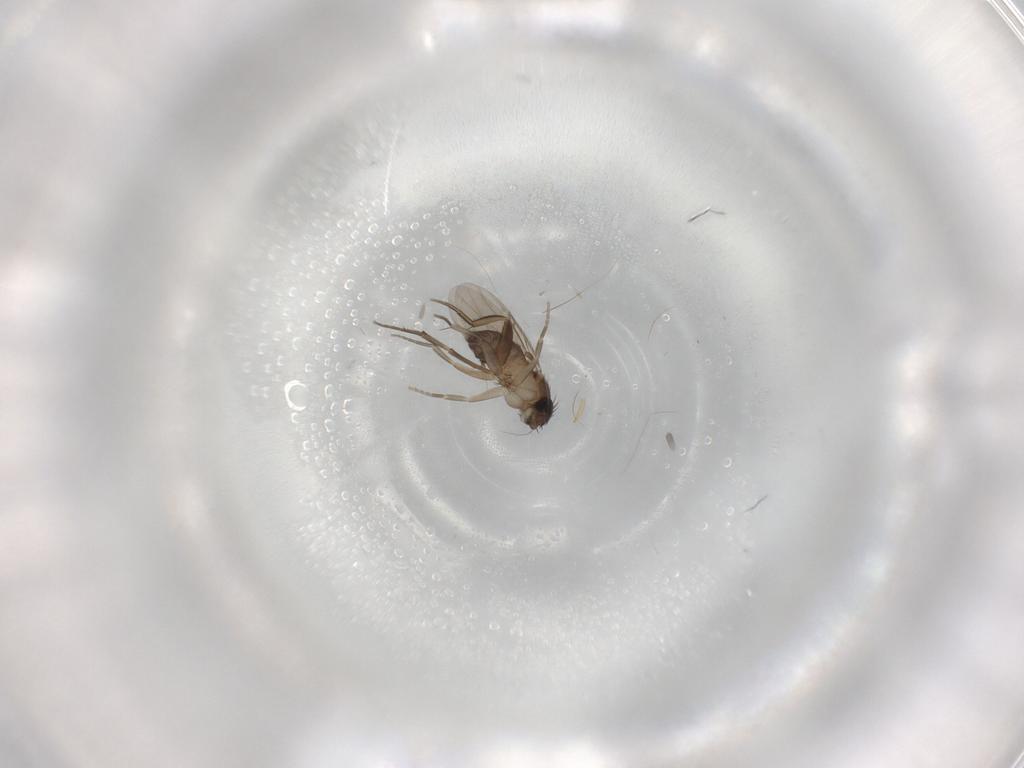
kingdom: Animalia
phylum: Arthropoda
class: Insecta
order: Diptera
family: Phoridae
